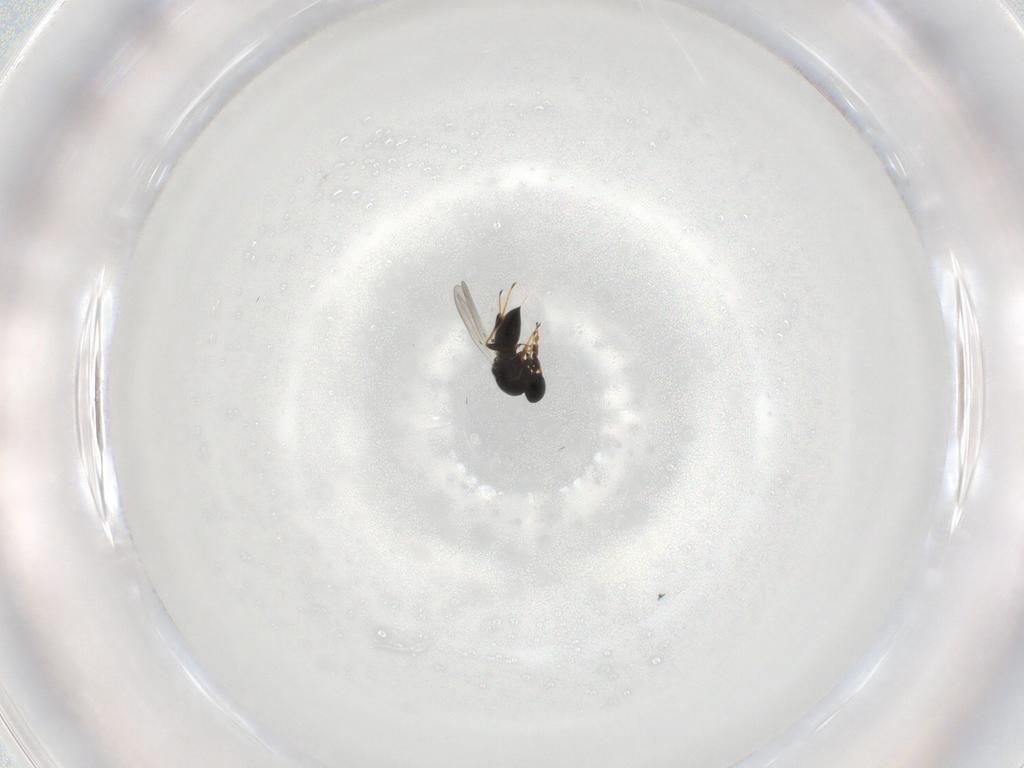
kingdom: Animalia
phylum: Arthropoda
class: Insecta
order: Hymenoptera
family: Platygastridae
